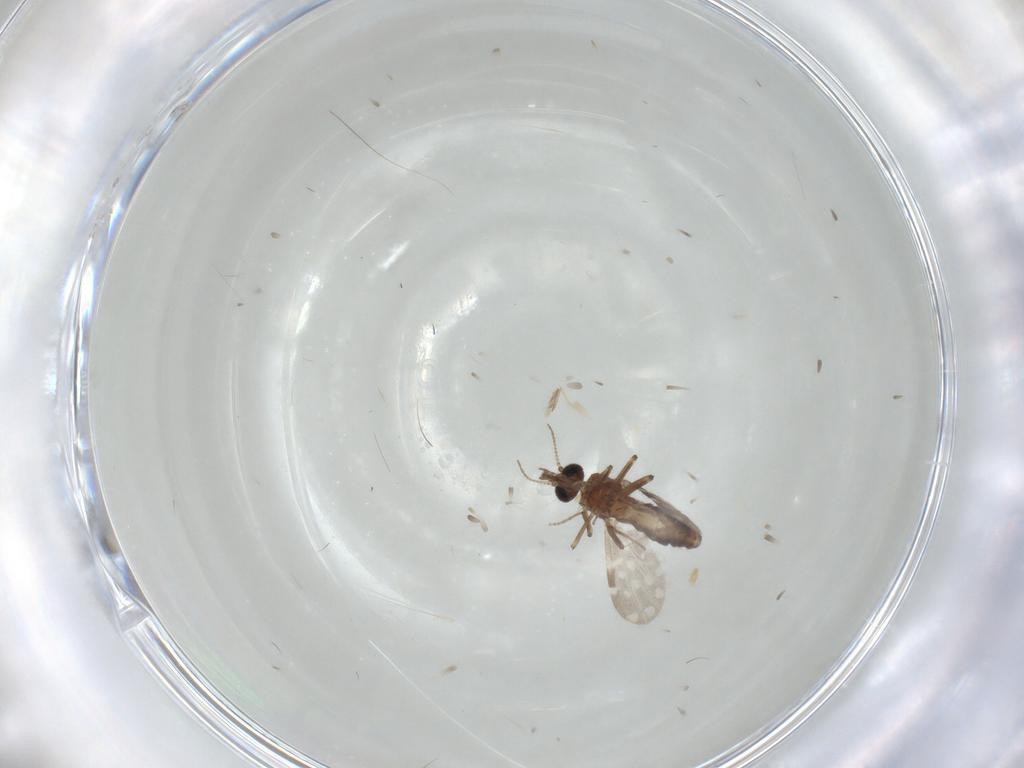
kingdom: Animalia
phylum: Arthropoda
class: Insecta
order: Diptera
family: Ceratopogonidae
